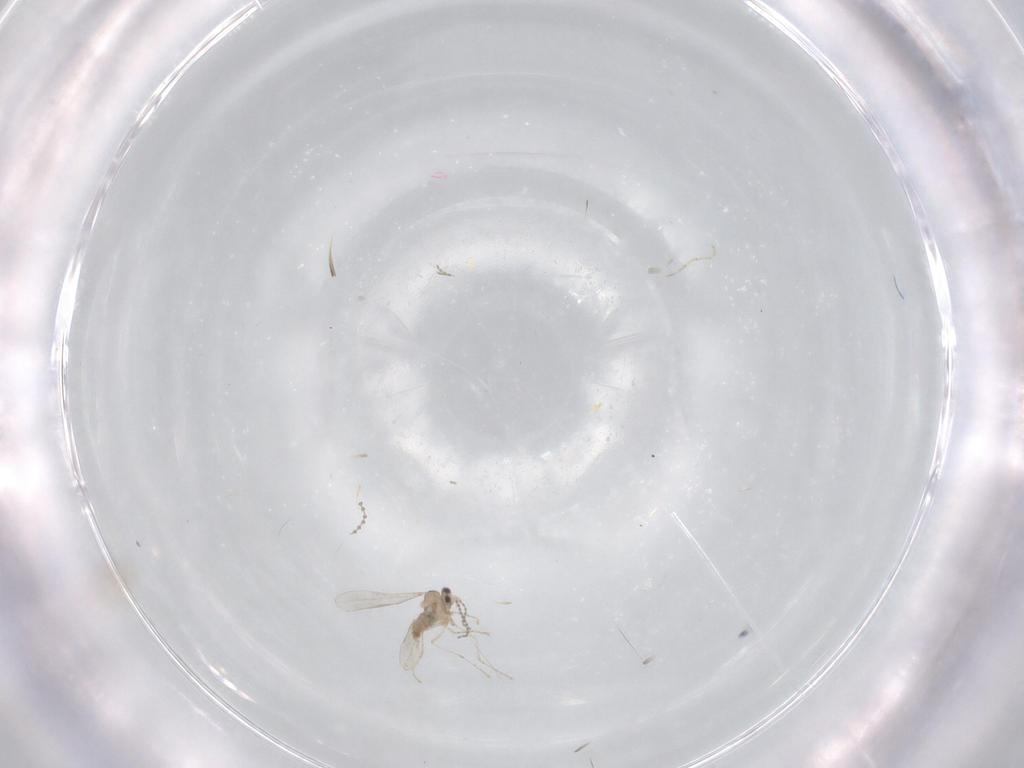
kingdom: Animalia
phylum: Arthropoda
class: Insecta
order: Diptera
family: Cecidomyiidae
